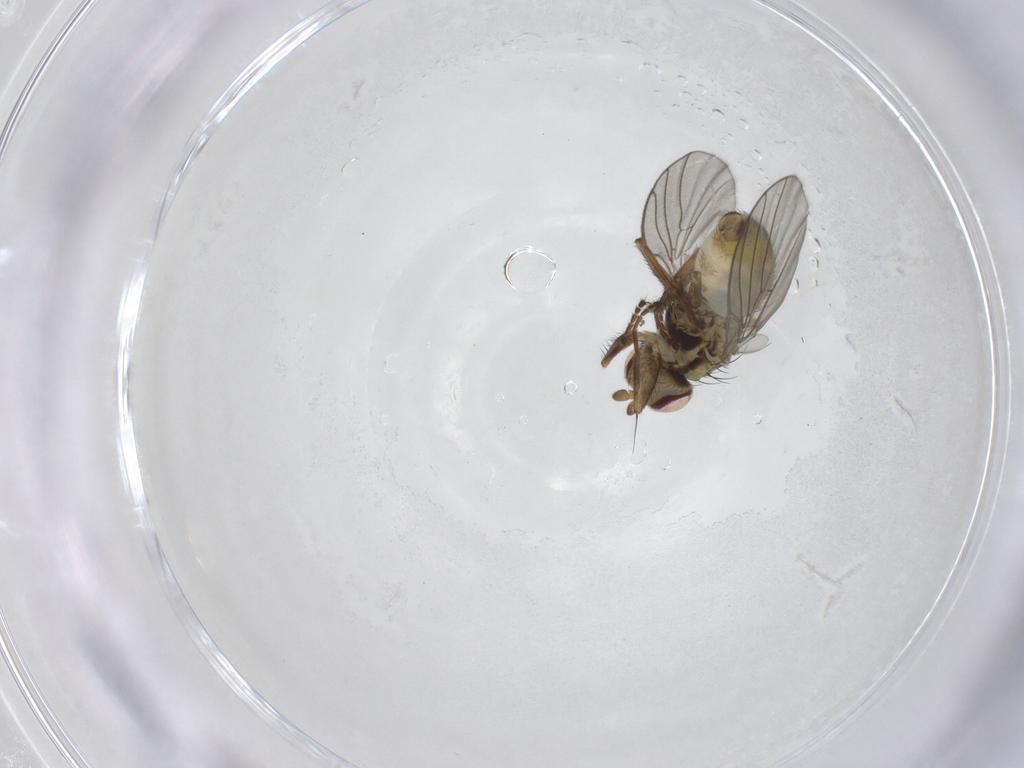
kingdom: Animalia
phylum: Arthropoda
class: Insecta
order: Diptera
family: Agromyzidae
